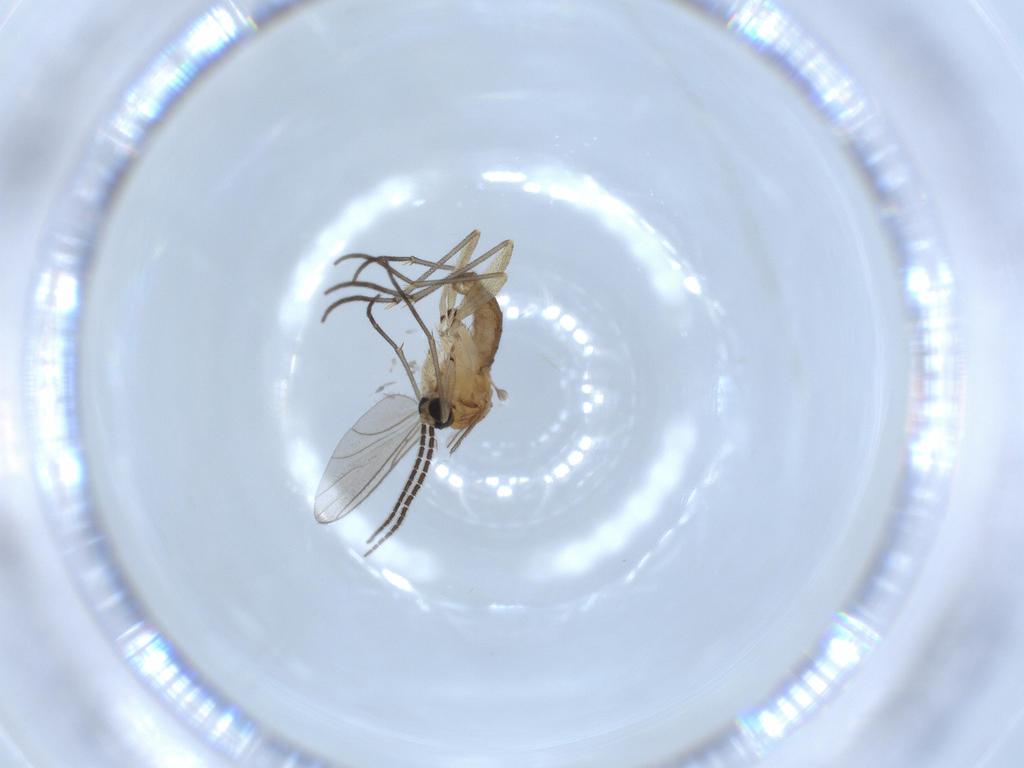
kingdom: Animalia
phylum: Arthropoda
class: Insecta
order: Diptera
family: Sciaridae
